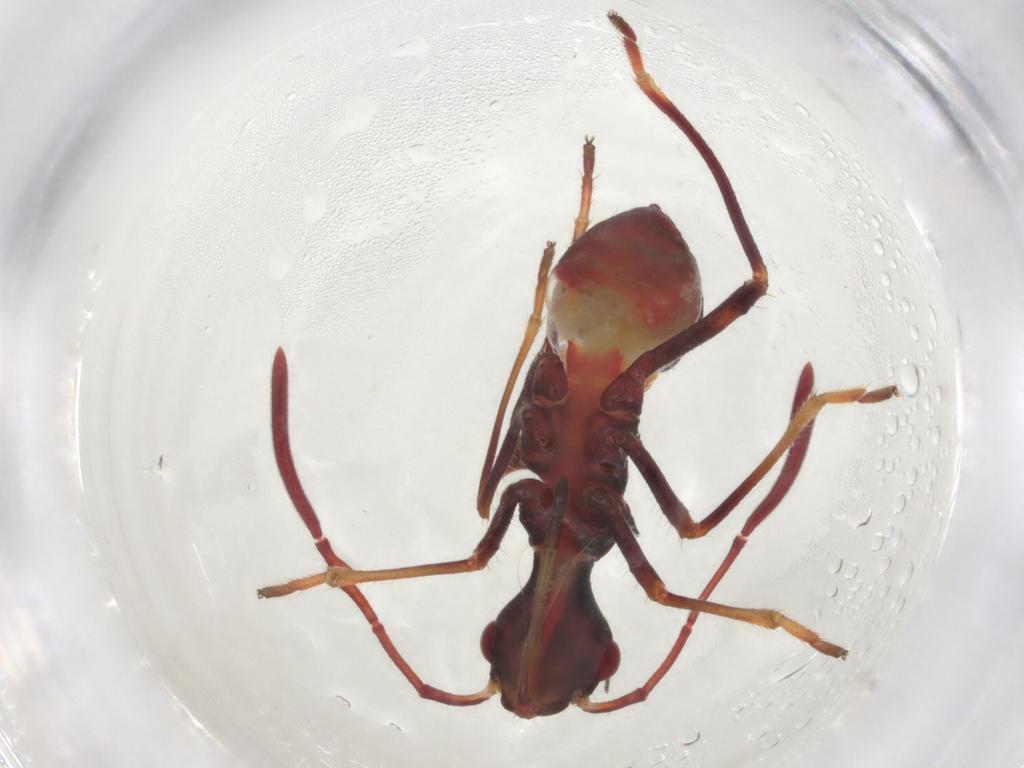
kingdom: Animalia
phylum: Arthropoda
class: Insecta
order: Hemiptera
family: Alydidae
